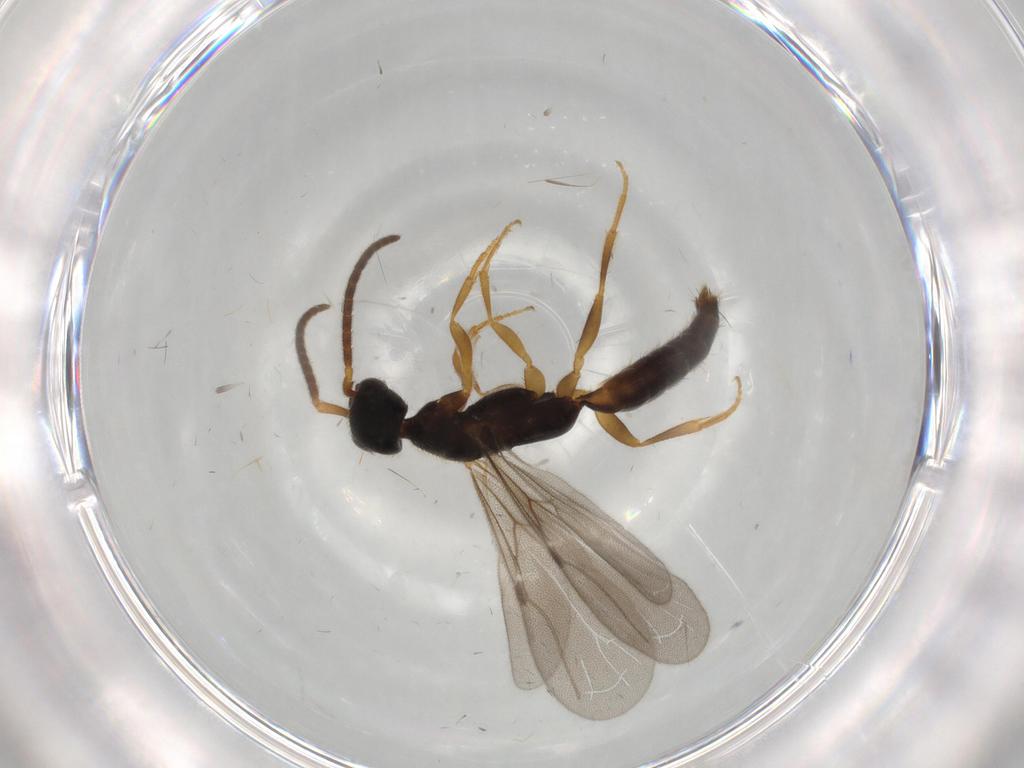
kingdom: Animalia
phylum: Arthropoda
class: Insecta
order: Hymenoptera
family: Bethylidae
